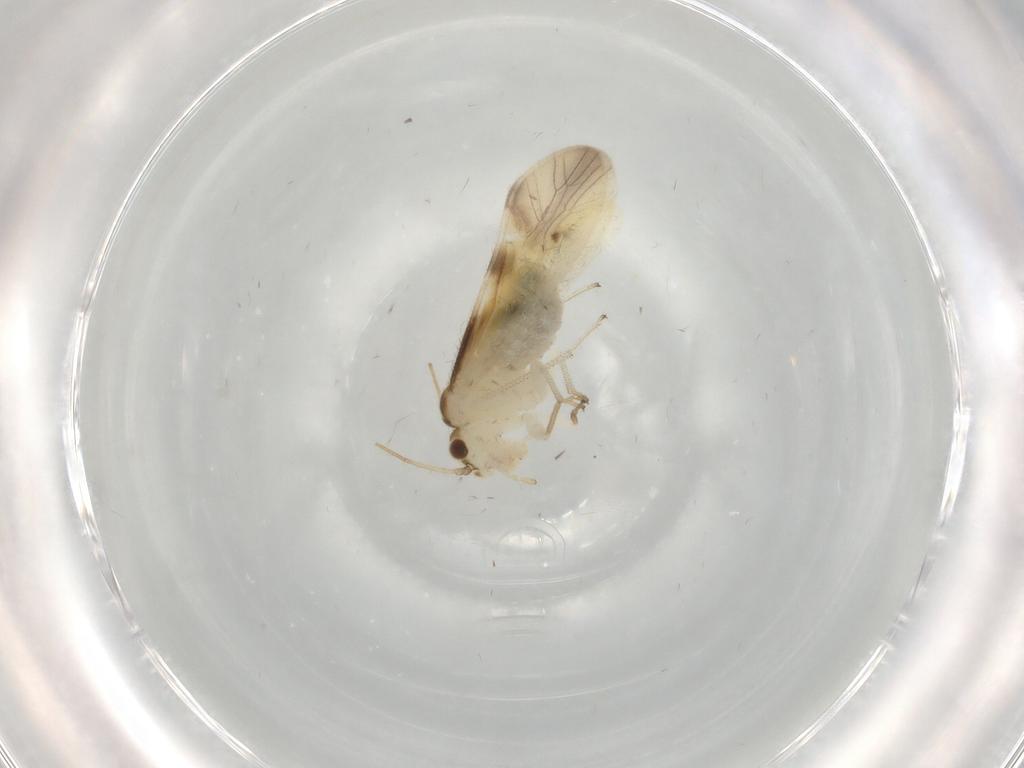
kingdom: Animalia
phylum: Arthropoda
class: Insecta
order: Psocodea
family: Caeciliusidae
